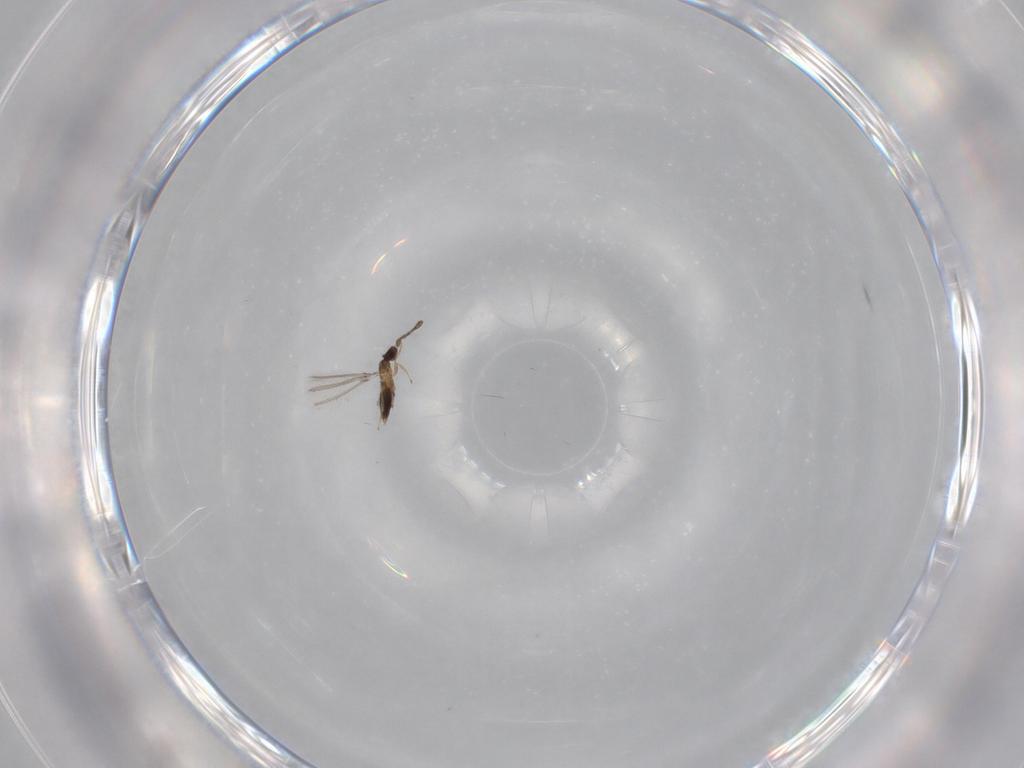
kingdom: Animalia
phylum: Arthropoda
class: Insecta
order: Hymenoptera
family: Mymaridae
